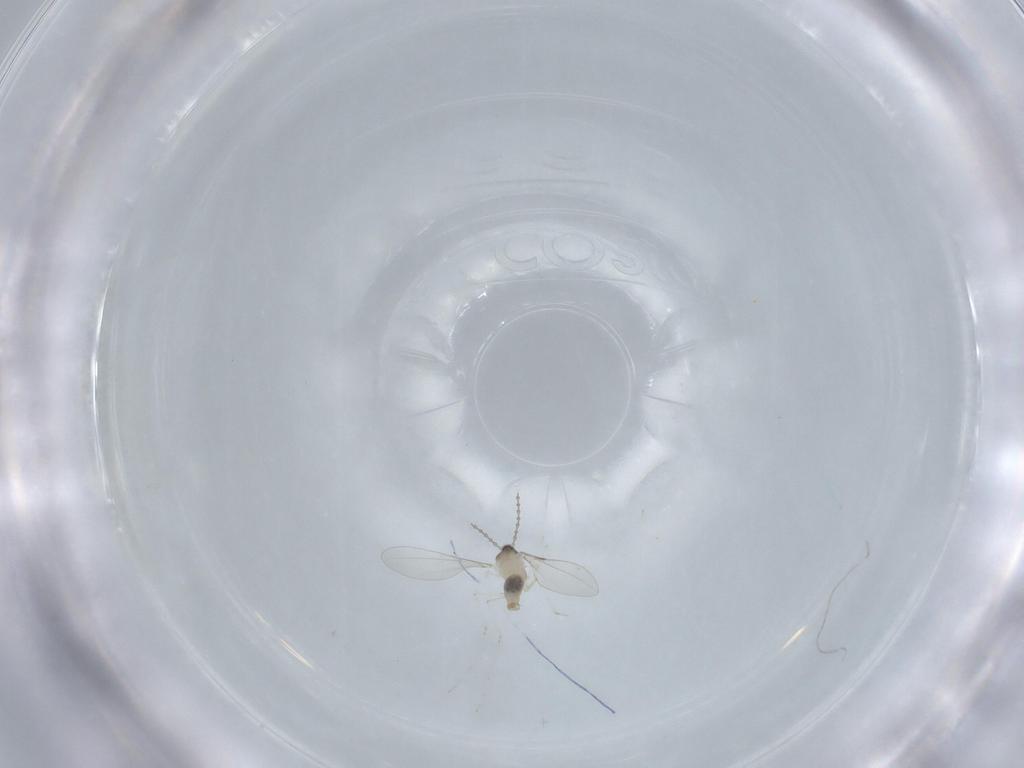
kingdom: Animalia
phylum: Arthropoda
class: Insecta
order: Diptera
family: Cecidomyiidae
